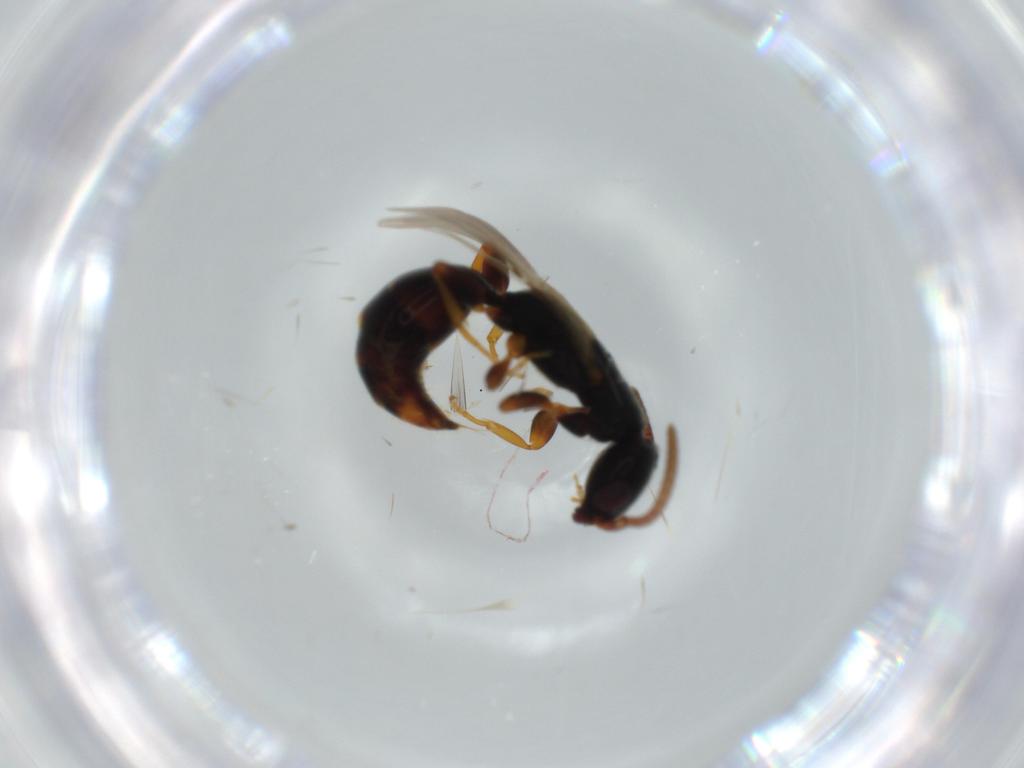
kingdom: Animalia
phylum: Arthropoda
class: Insecta
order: Hymenoptera
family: Bethylidae
